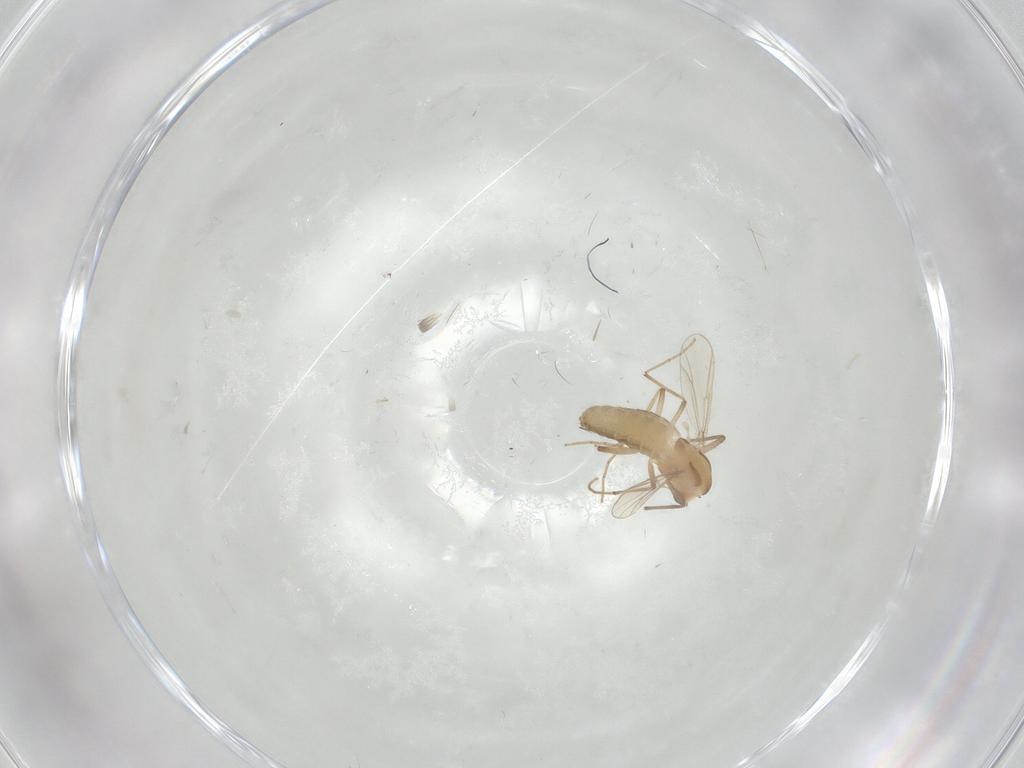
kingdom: Animalia
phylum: Arthropoda
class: Insecta
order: Diptera
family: Chironomidae
